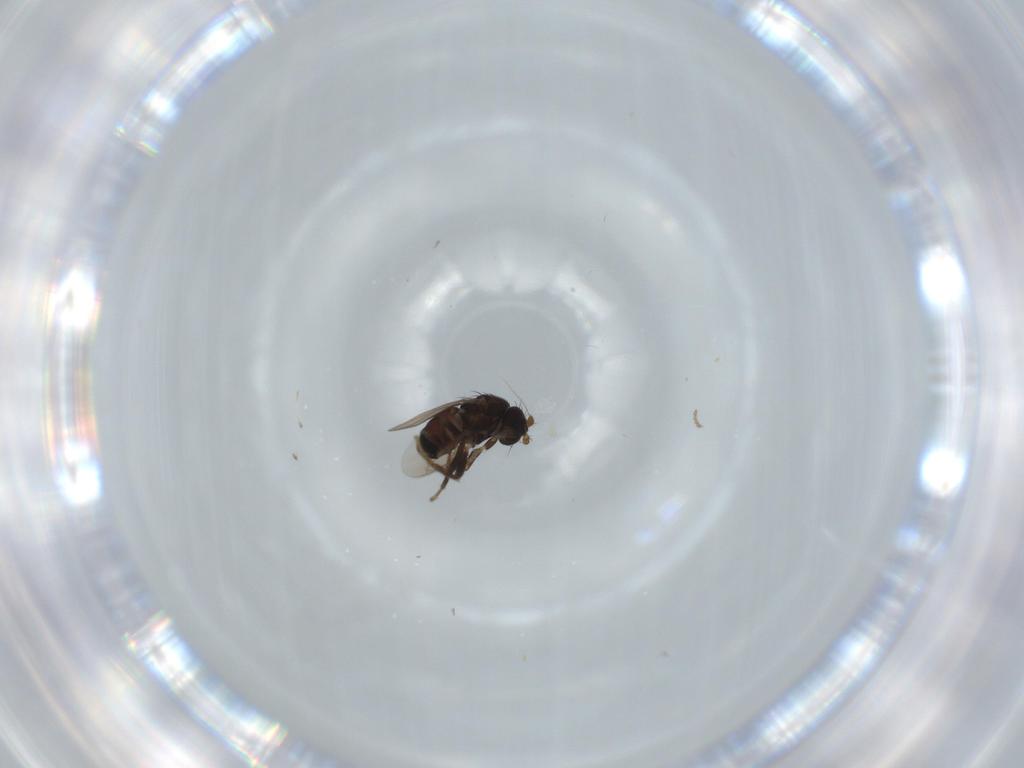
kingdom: Animalia
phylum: Arthropoda
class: Insecta
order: Diptera
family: Sphaeroceridae
